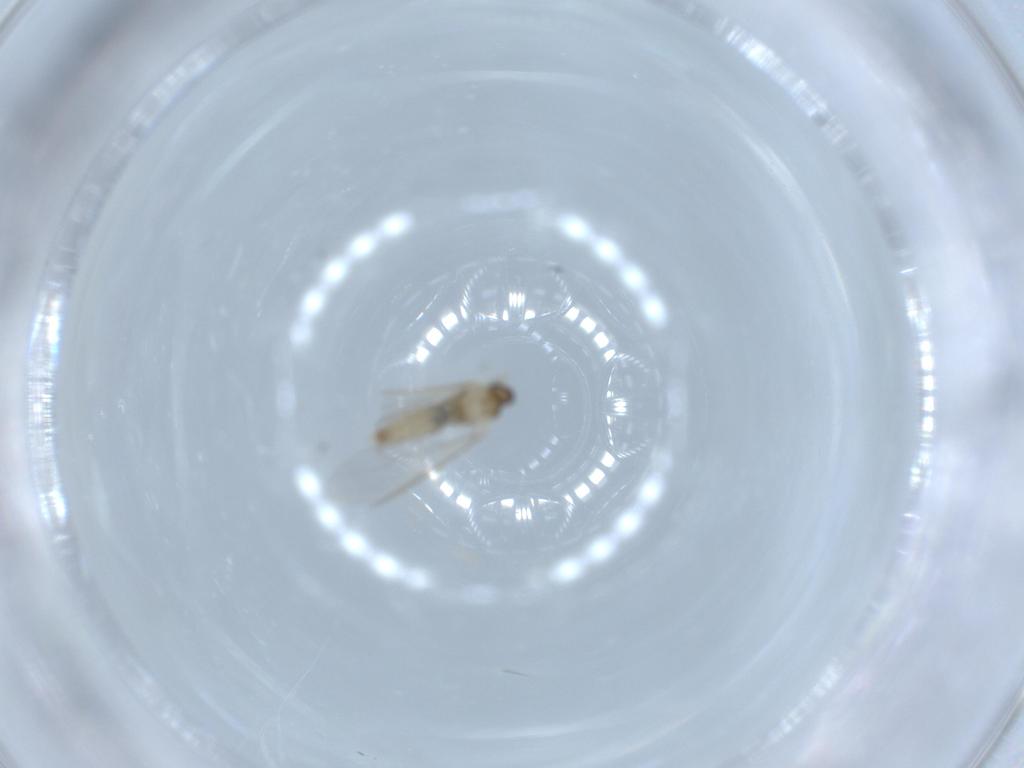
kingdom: Animalia
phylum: Arthropoda
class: Insecta
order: Diptera
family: Cecidomyiidae
